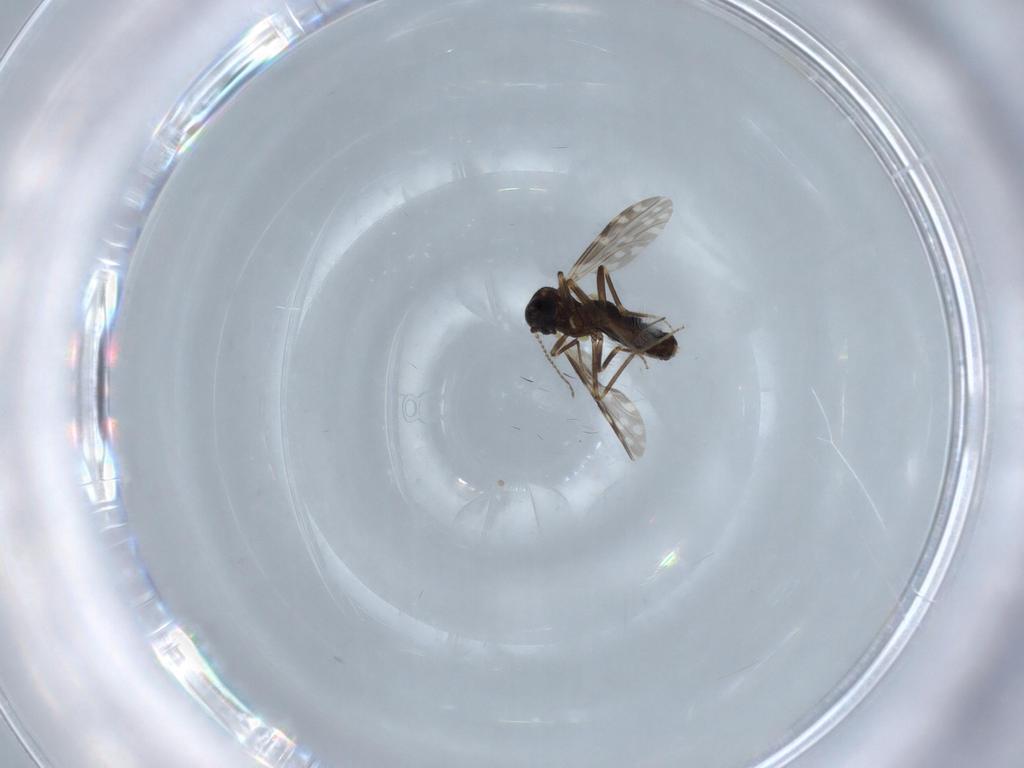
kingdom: Animalia
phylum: Arthropoda
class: Insecta
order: Diptera
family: Ceratopogonidae
